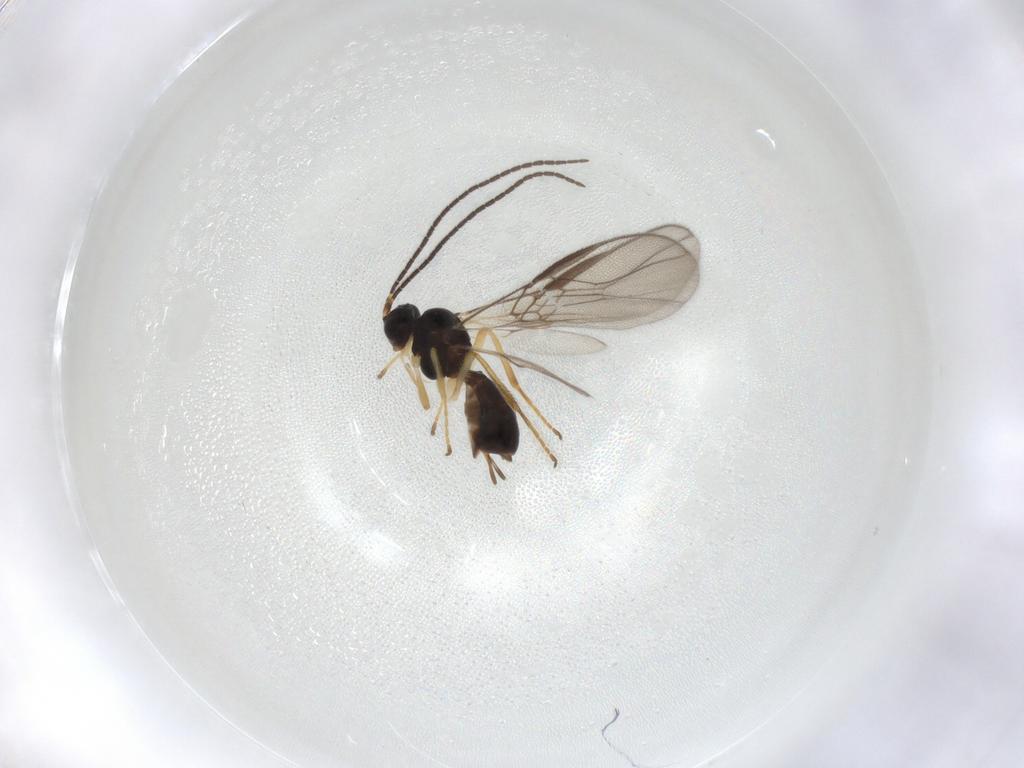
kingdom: Animalia
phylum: Arthropoda
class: Insecta
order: Hymenoptera
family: Braconidae
